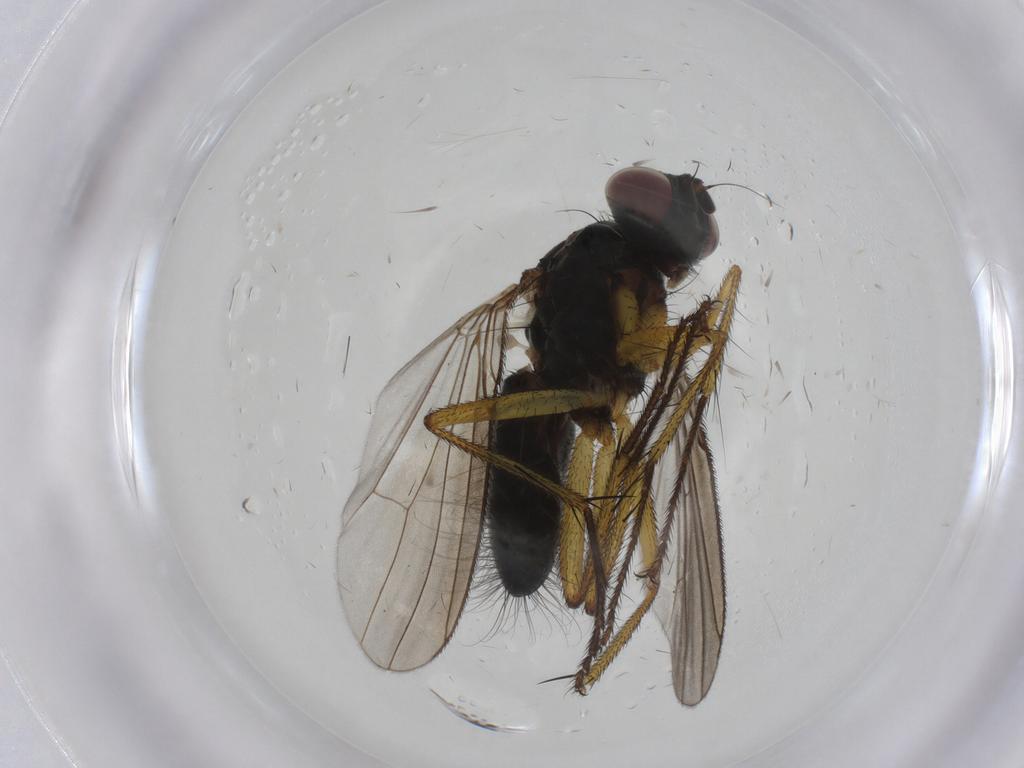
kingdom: Animalia
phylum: Arthropoda
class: Insecta
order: Diptera
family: Muscidae
